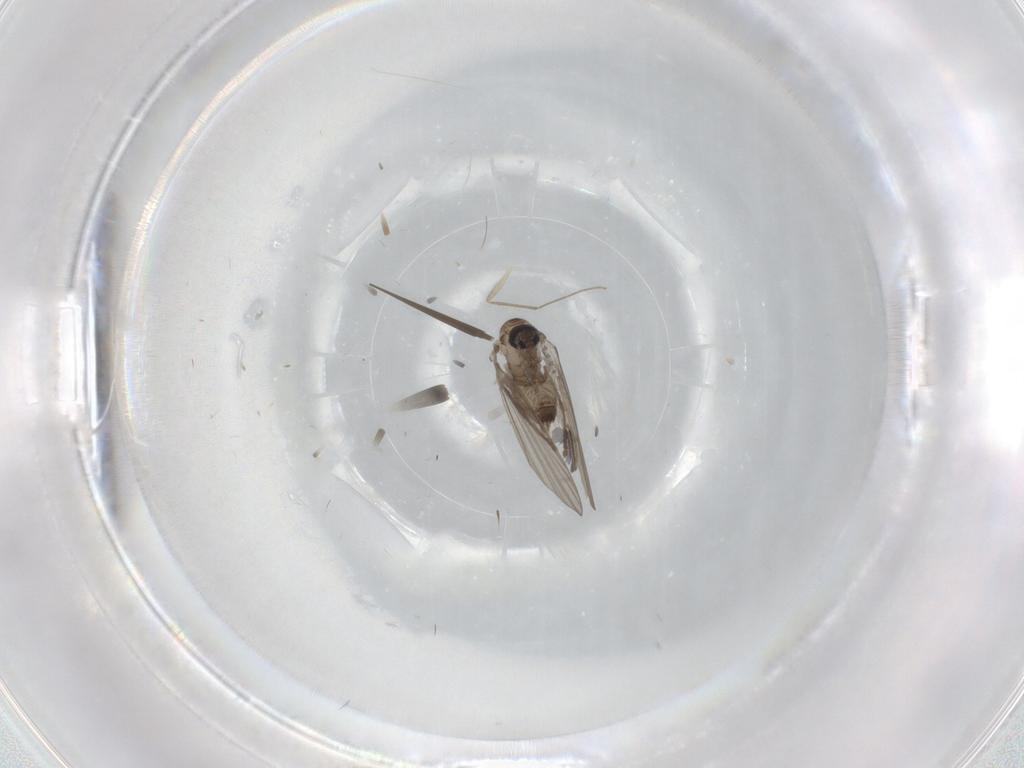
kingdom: Animalia
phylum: Arthropoda
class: Insecta
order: Diptera
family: Psychodidae
